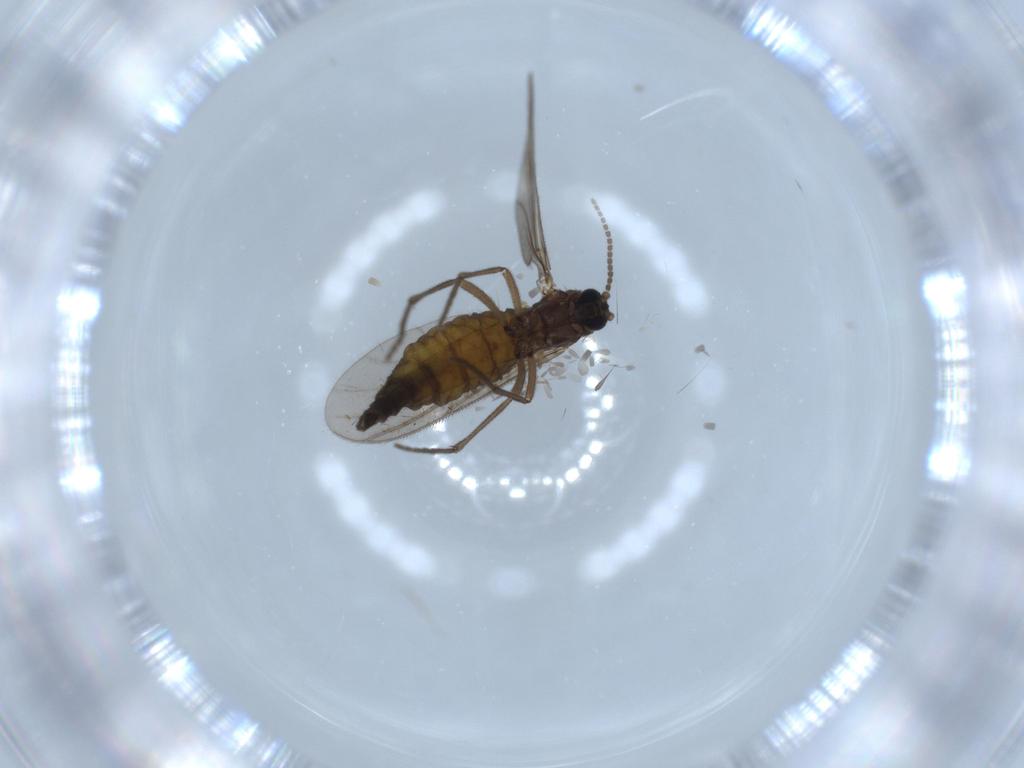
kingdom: Animalia
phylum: Arthropoda
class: Insecta
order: Diptera
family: Sciaridae
